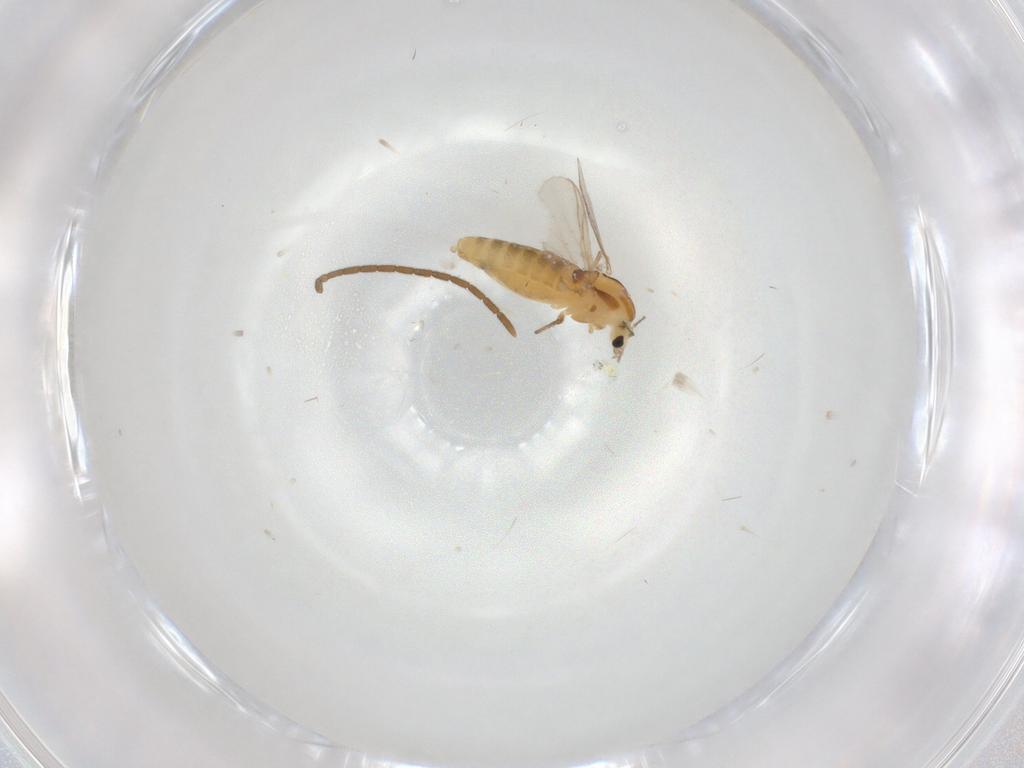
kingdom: Animalia
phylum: Arthropoda
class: Insecta
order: Diptera
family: Chironomidae
